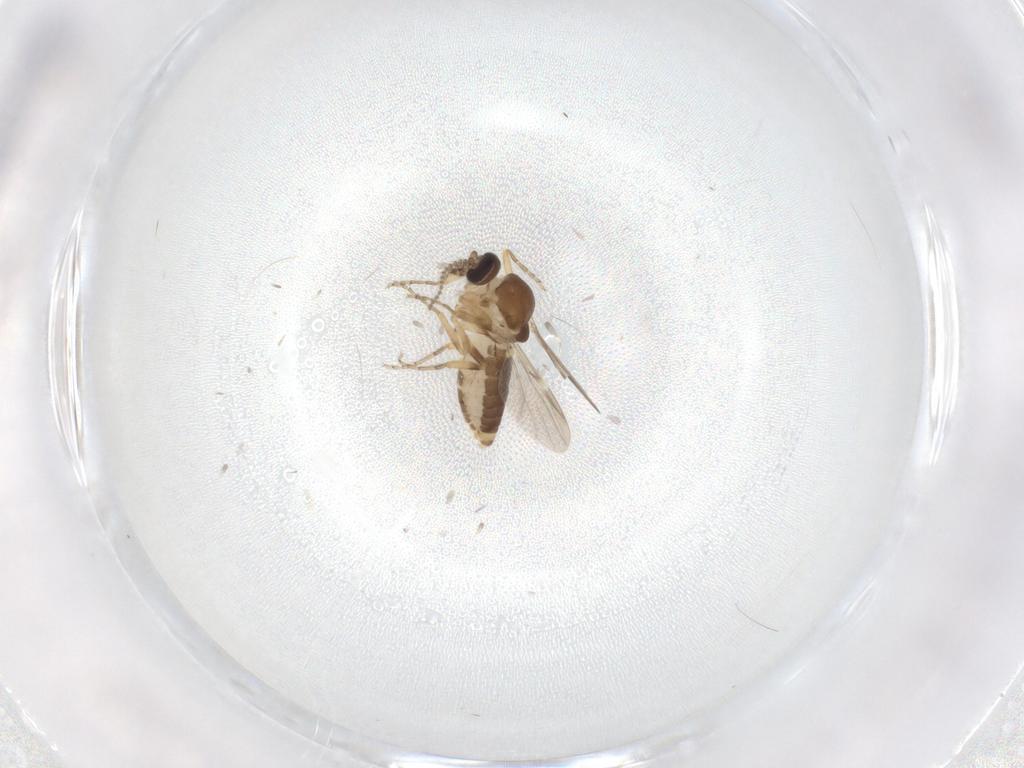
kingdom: Animalia
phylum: Arthropoda
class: Insecta
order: Diptera
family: Ceratopogonidae
